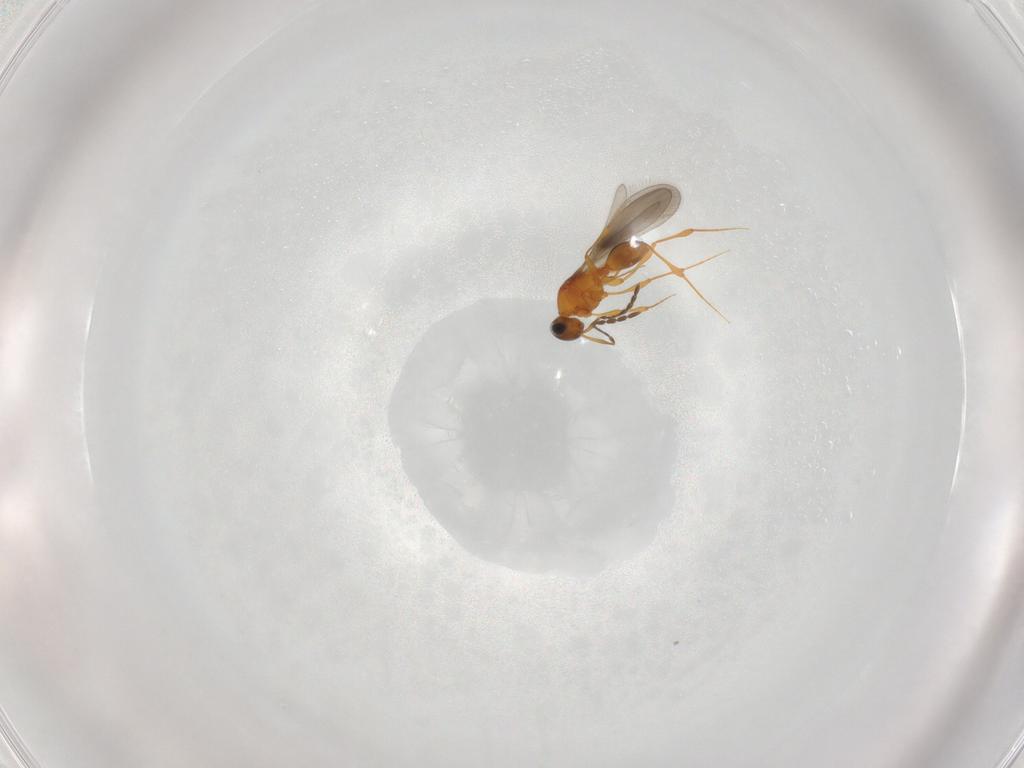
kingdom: Animalia
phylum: Arthropoda
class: Insecta
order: Hymenoptera
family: Platygastridae
